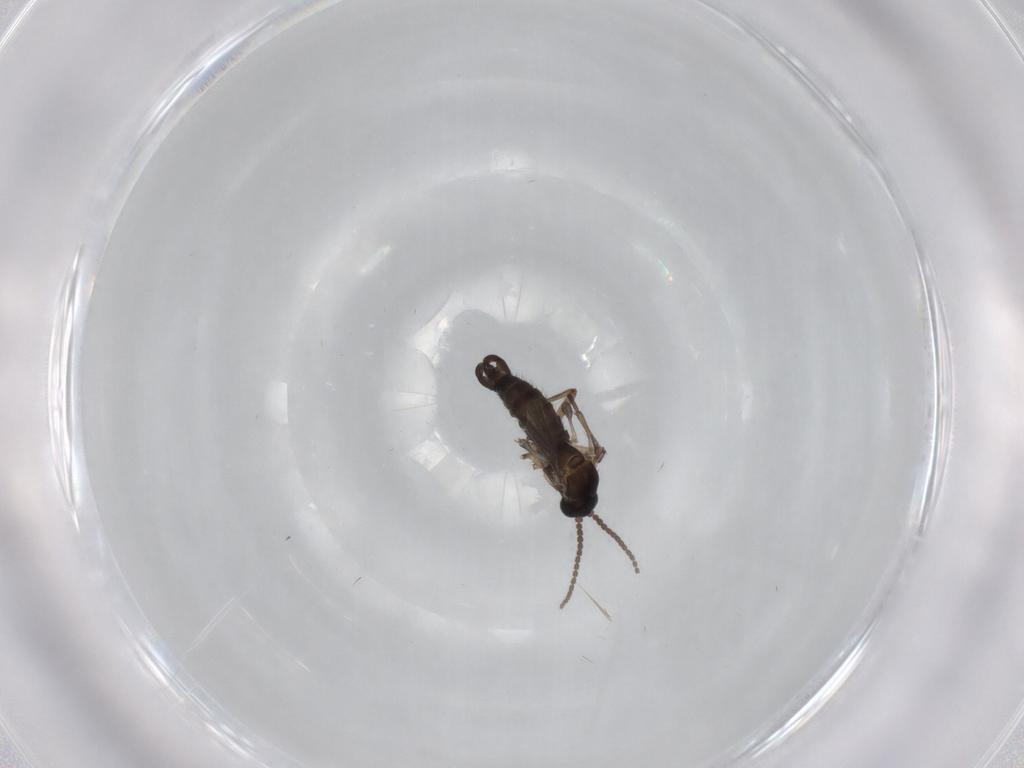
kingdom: Animalia
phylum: Arthropoda
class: Insecta
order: Diptera
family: Sciaridae
